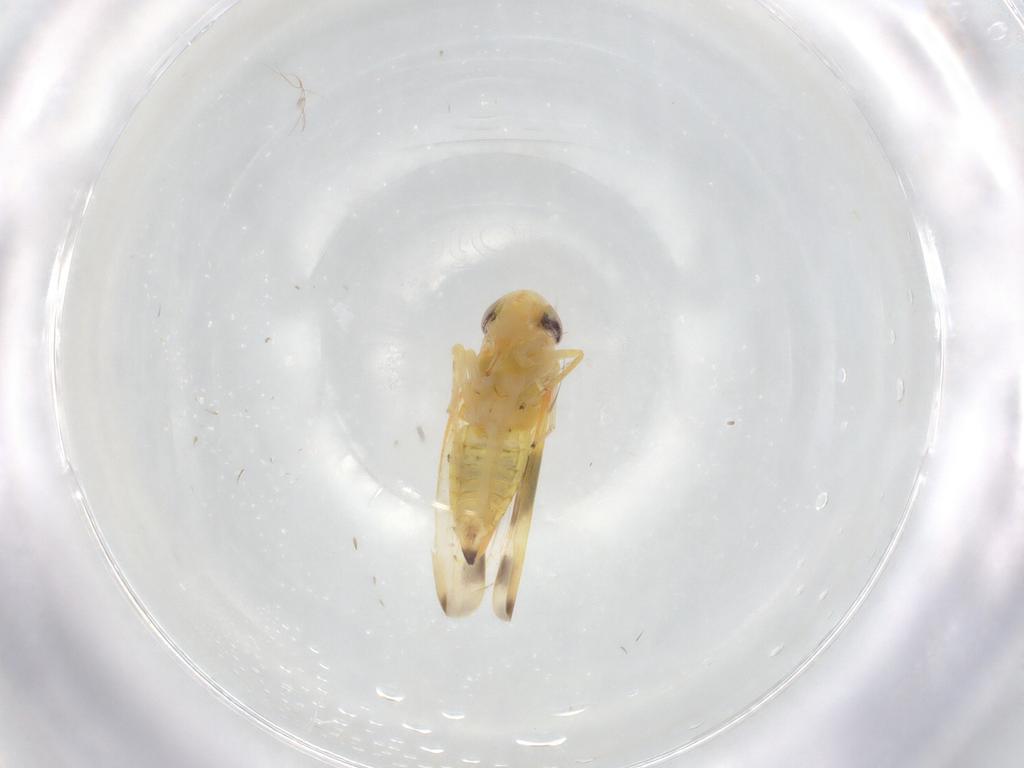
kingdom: Animalia
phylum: Arthropoda
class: Insecta
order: Hemiptera
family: Cicadellidae
